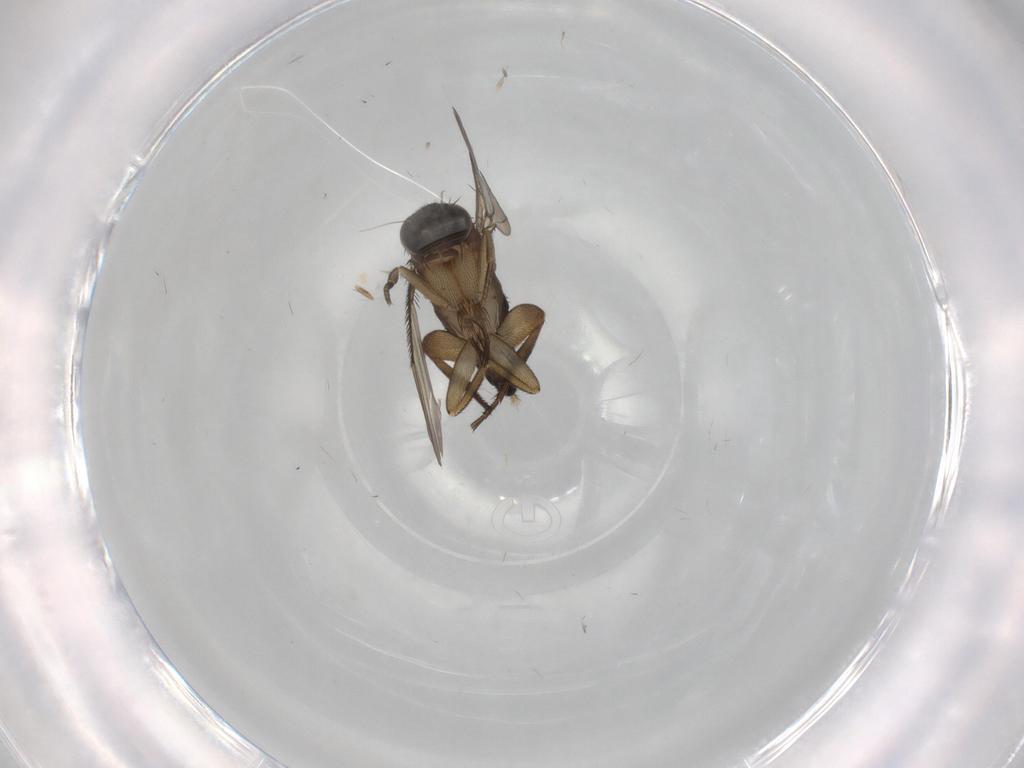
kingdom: Animalia
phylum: Arthropoda
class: Insecta
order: Diptera
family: Phoridae
